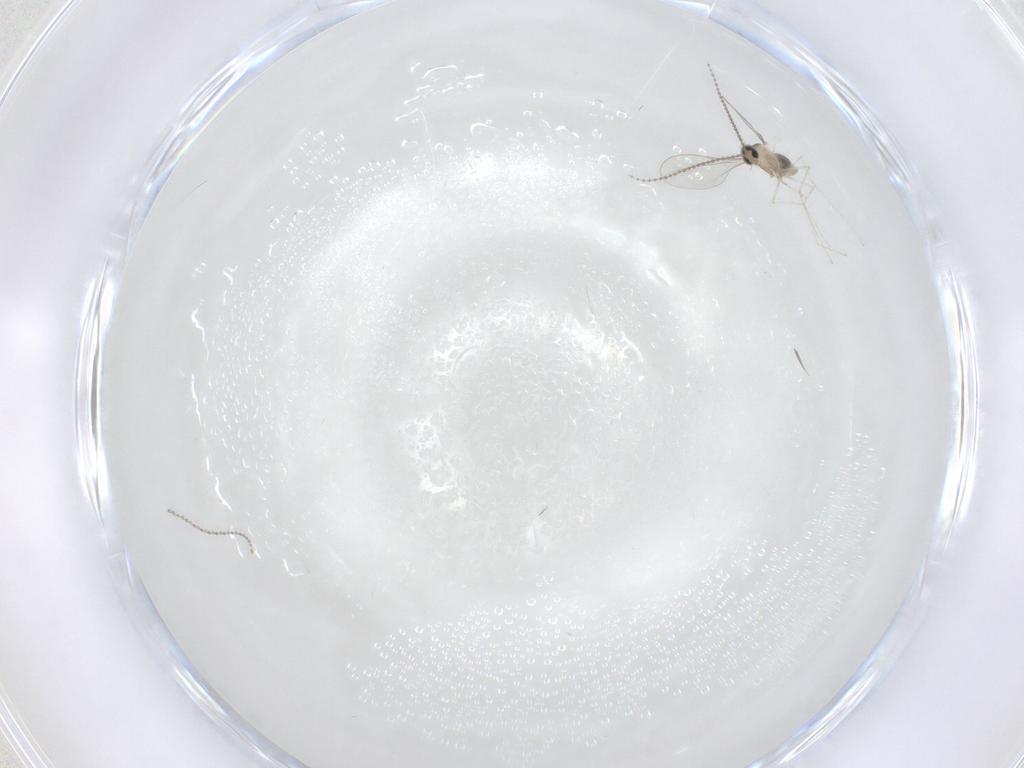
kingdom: Animalia
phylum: Arthropoda
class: Insecta
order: Diptera
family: Cecidomyiidae
